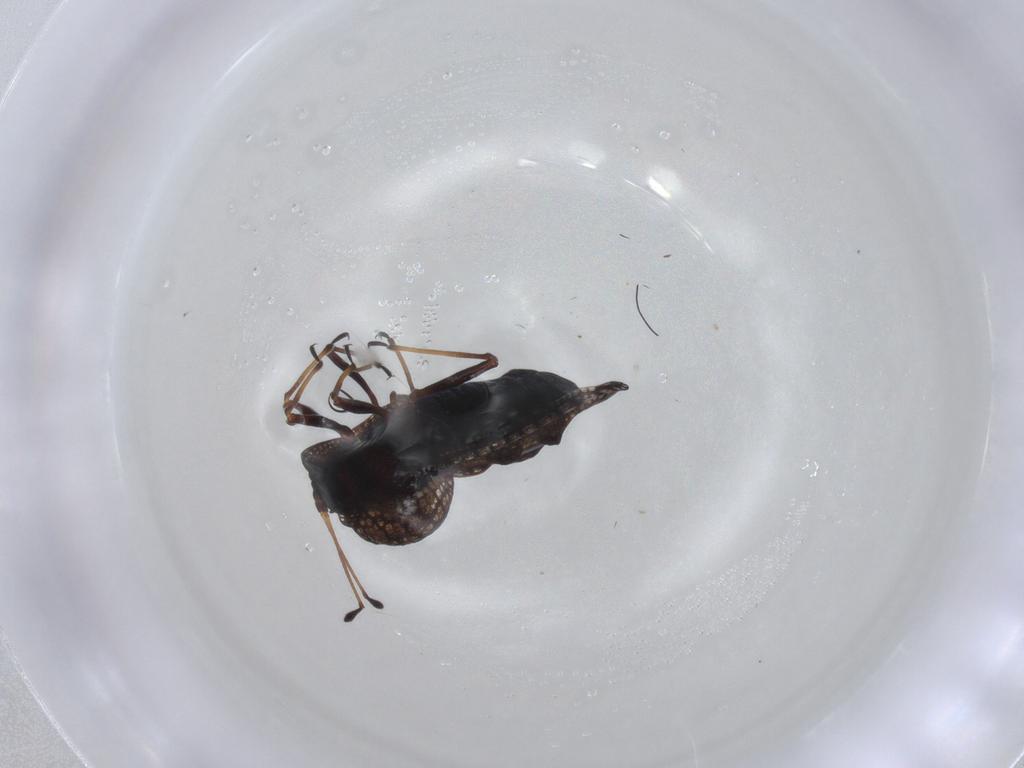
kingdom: Animalia
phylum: Arthropoda
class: Insecta
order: Hemiptera
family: Tingidae
